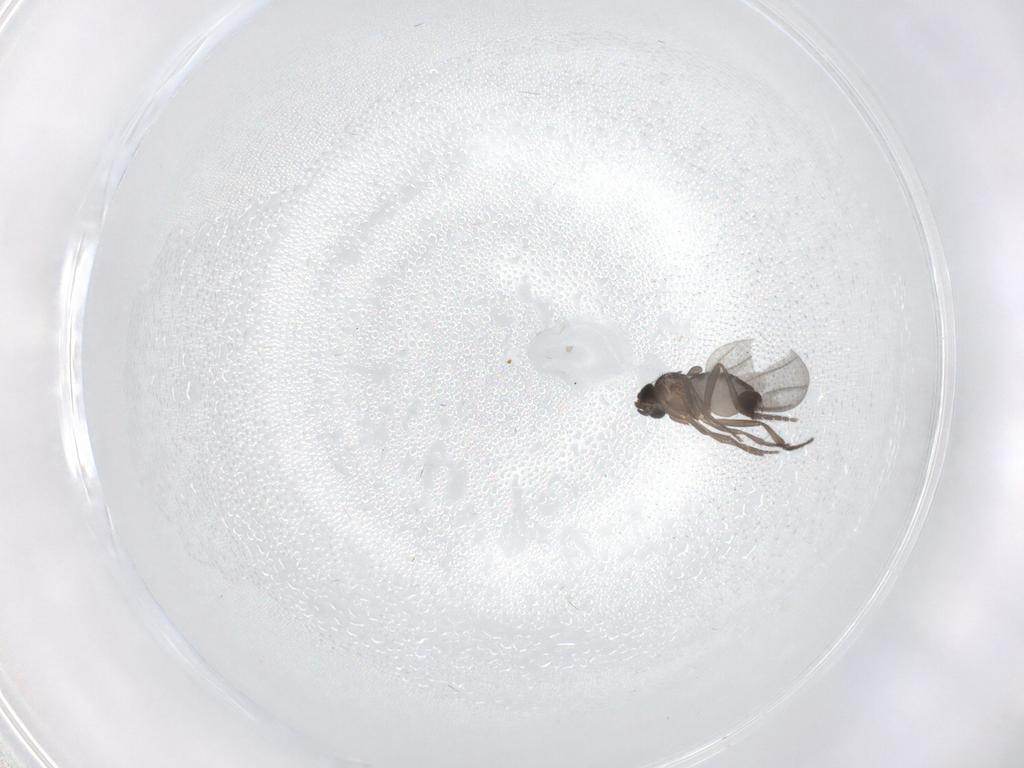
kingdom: Animalia
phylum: Arthropoda
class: Insecta
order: Diptera
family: Phoridae
